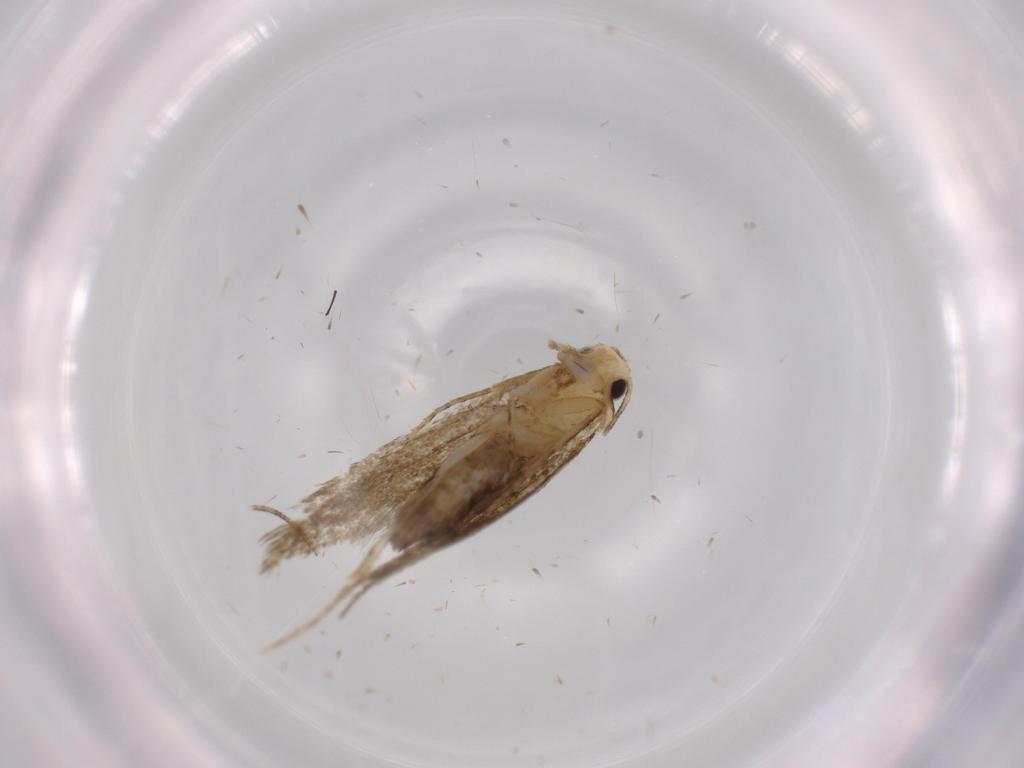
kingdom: Animalia
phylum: Arthropoda
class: Insecta
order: Lepidoptera
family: Tineidae
